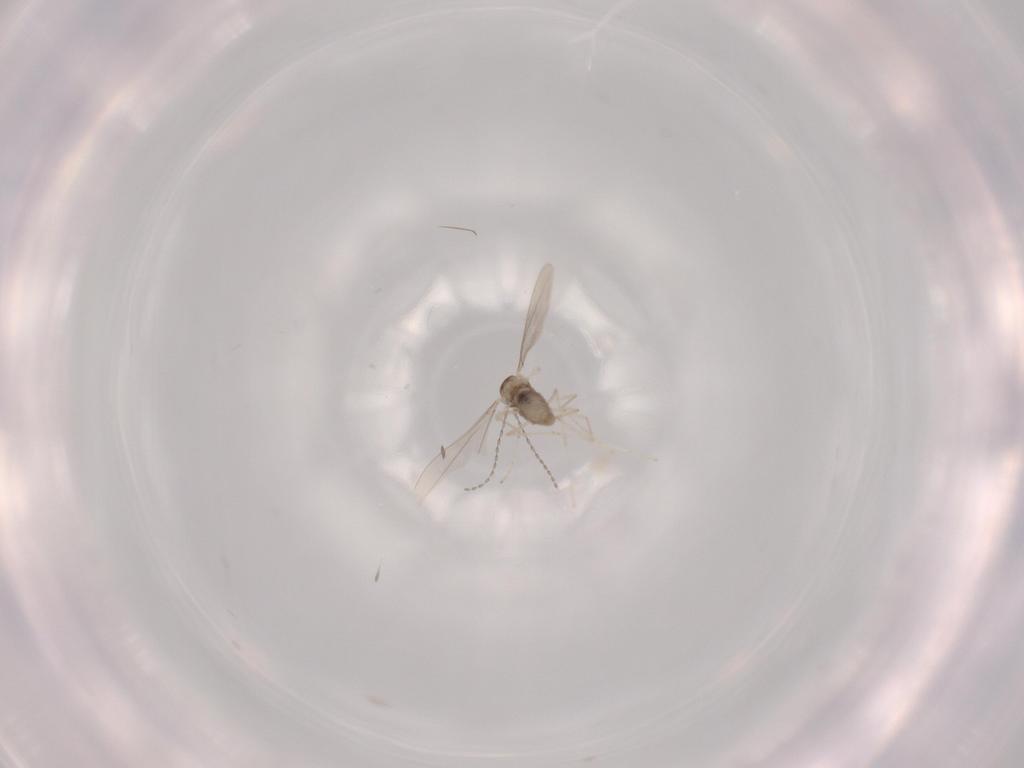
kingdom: Animalia
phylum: Arthropoda
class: Insecta
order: Diptera
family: Cecidomyiidae
